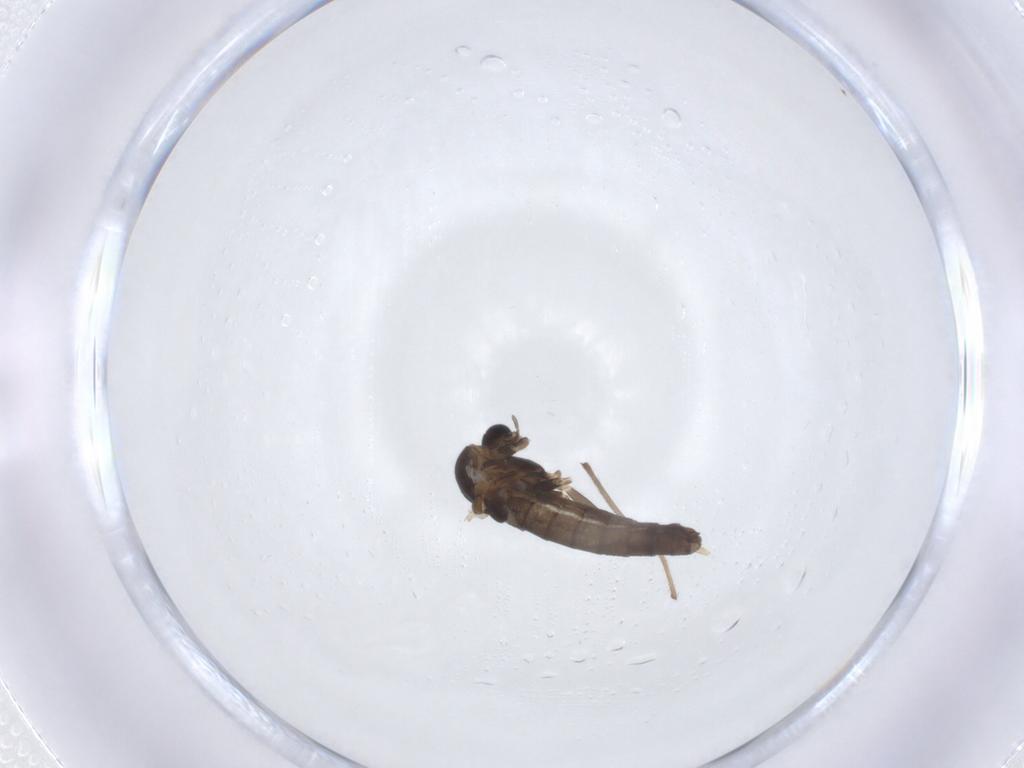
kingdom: Animalia
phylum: Arthropoda
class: Insecta
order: Diptera
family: Chironomidae
